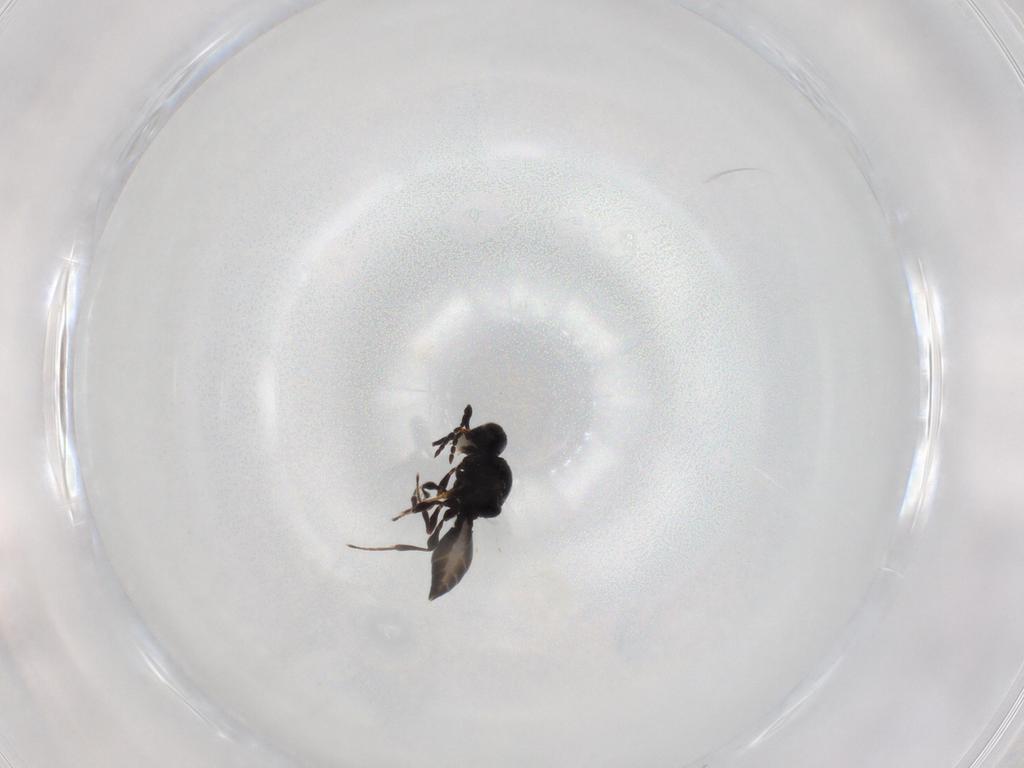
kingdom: Animalia
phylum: Arthropoda
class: Insecta
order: Hymenoptera
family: Platygastridae
